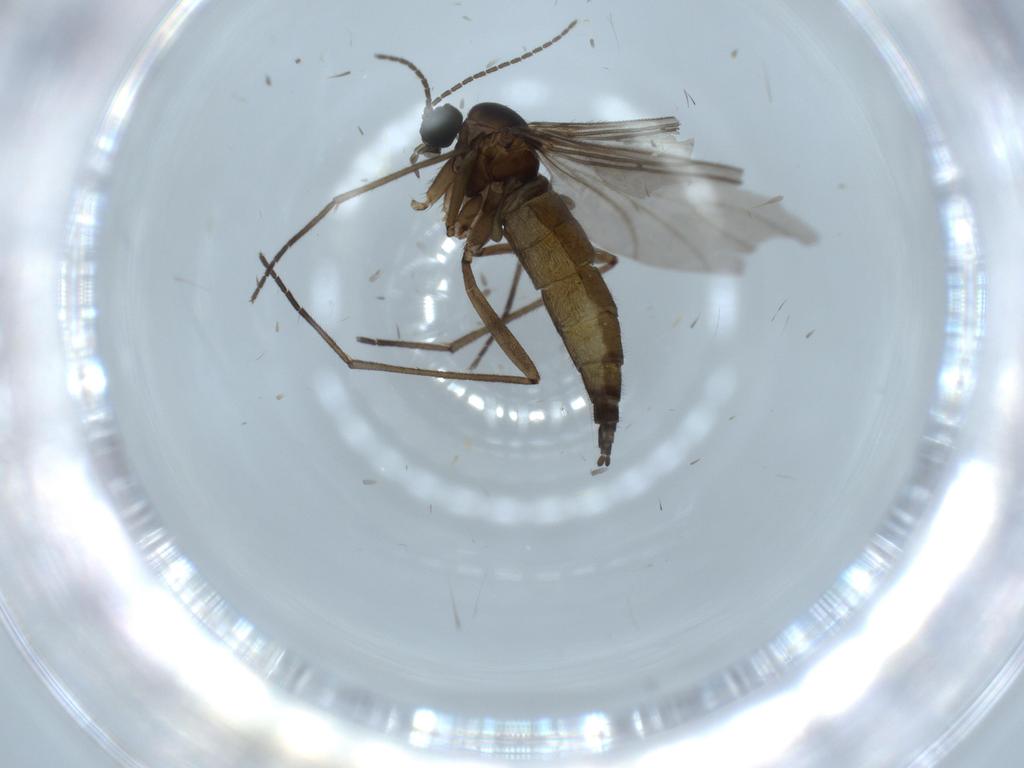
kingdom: Animalia
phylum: Arthropoda
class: Insecta
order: Diptera
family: Sciaridae
